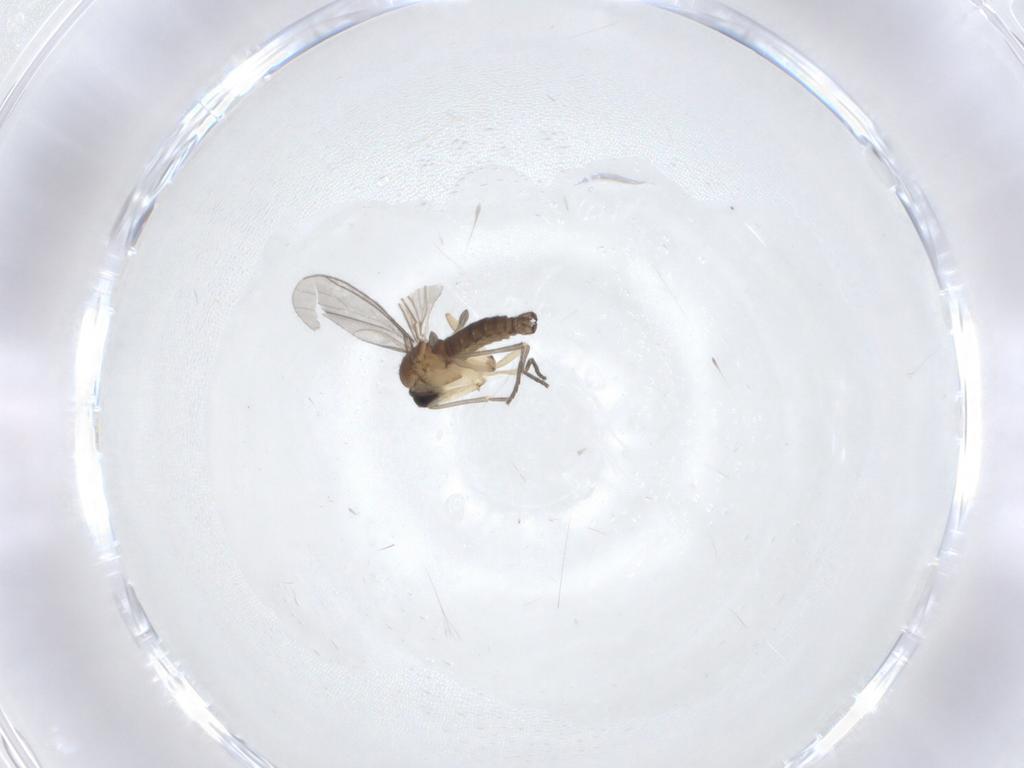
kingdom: Animalia
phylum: Arthropoda
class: Insecta
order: Diptera
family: Sciaridae
